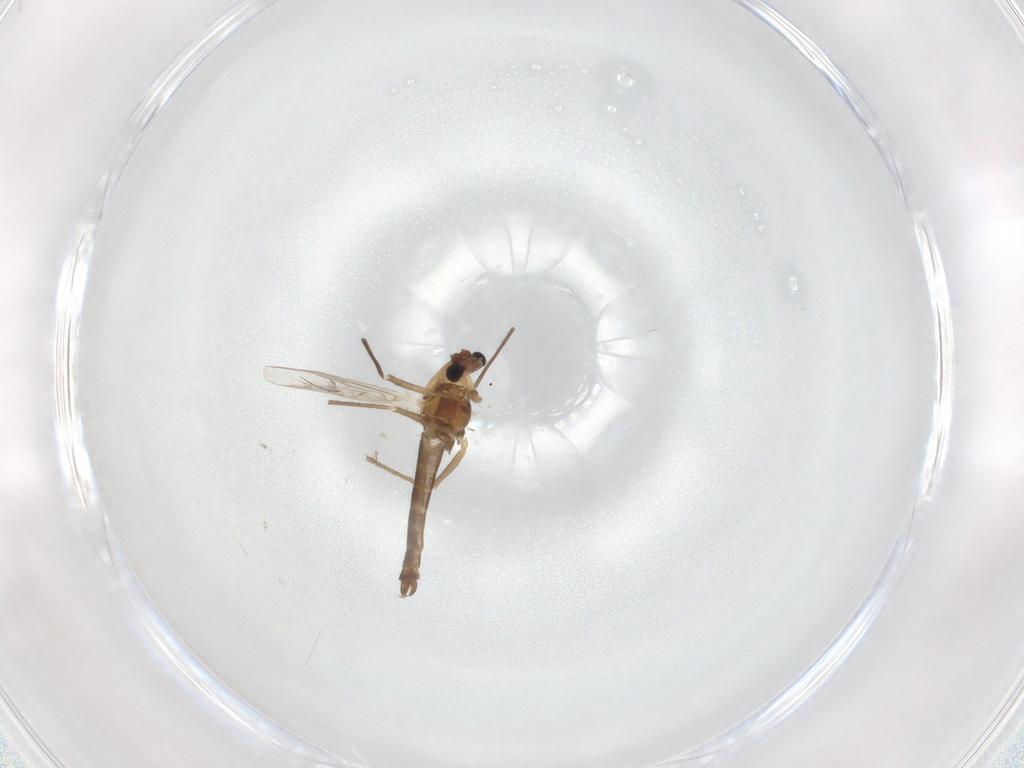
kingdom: Animalia
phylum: Arthropoda
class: Insecta
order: Diptera
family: Chironomidae
